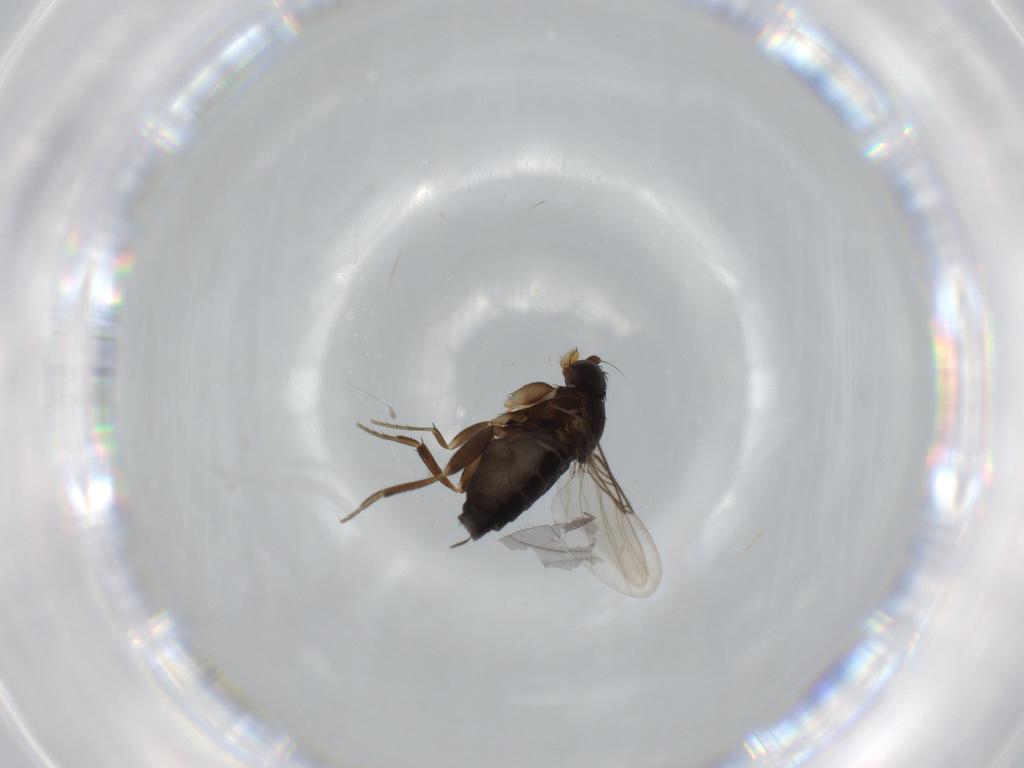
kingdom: Animalia
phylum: Arthropoda
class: Insecta
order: Diptera
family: Phoridae
